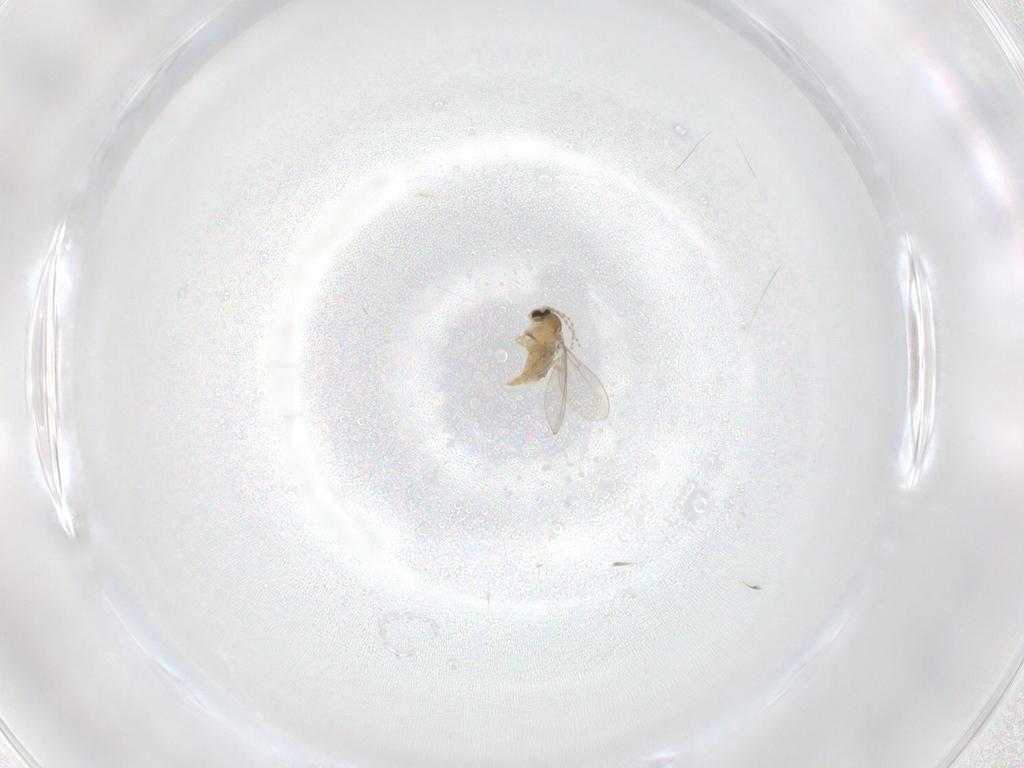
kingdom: Animalia
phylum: Arthropoda
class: Insecta
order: Diptera
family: Cecidomyiidae
